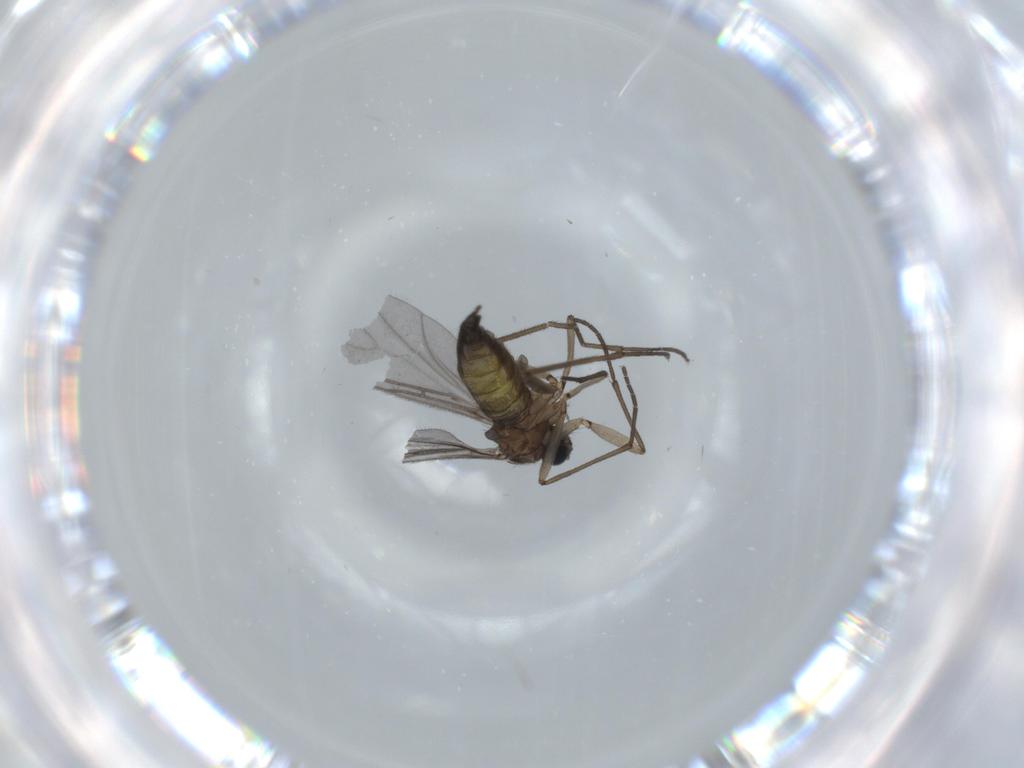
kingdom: Animalia
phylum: Arthropoda
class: Insecta
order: Diptera
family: Sciaridae
